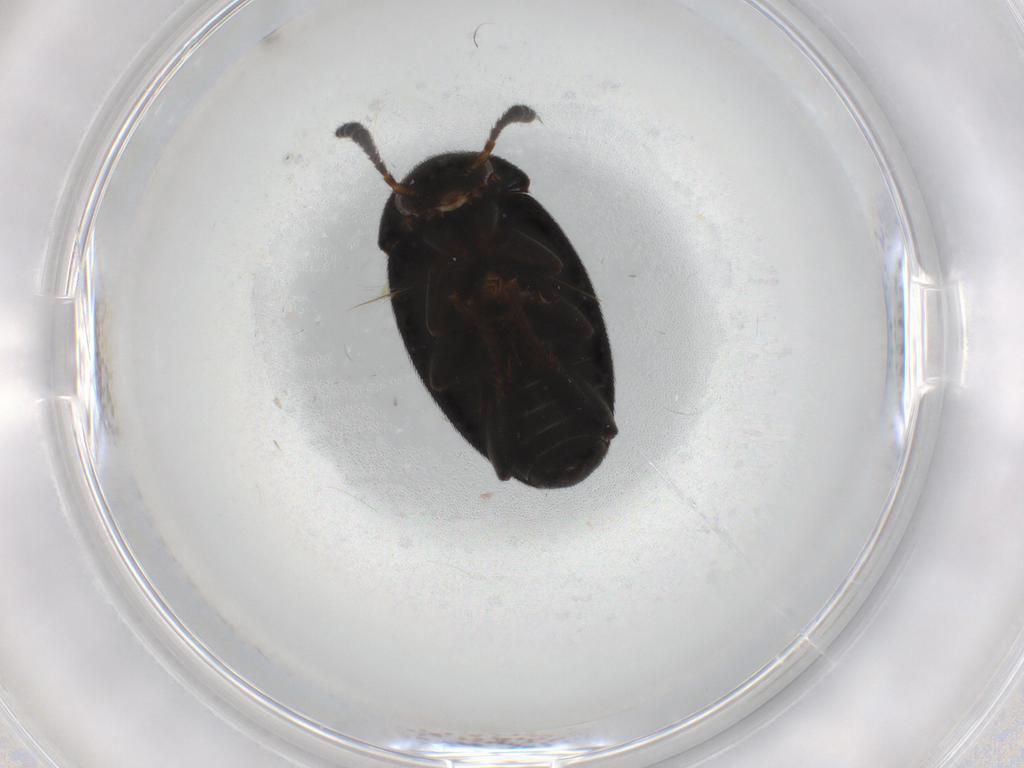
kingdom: Animalia
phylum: Arthropoda
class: Insecta
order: Coleoptera
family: Leiodidae
